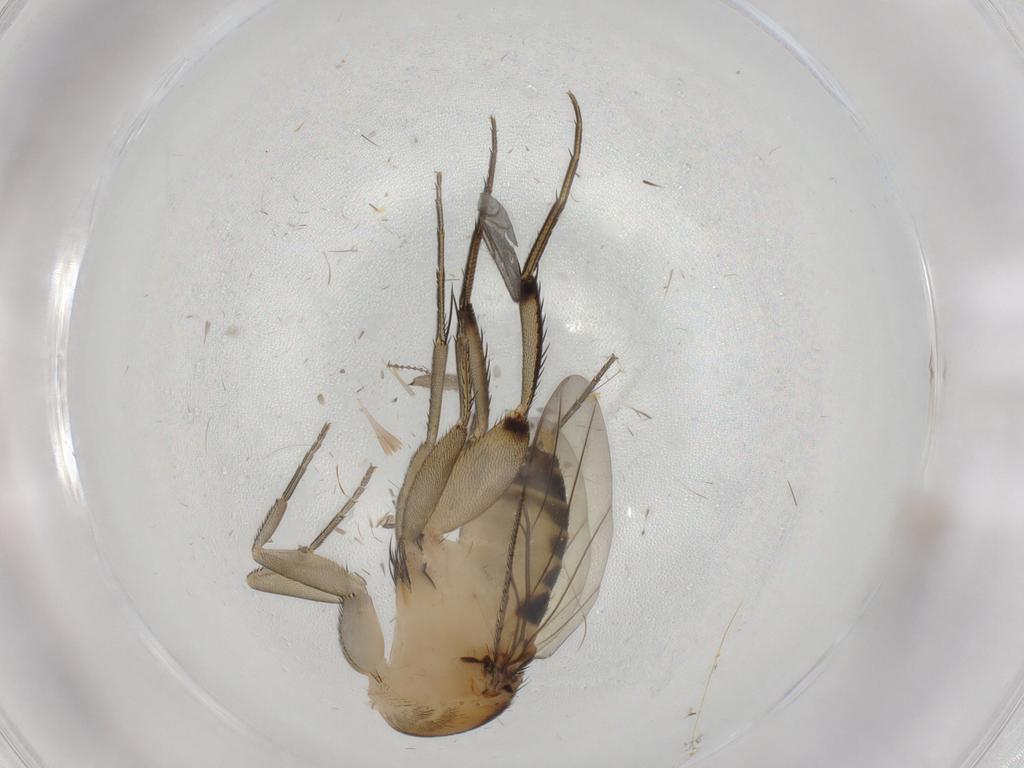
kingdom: Animalia
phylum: Arthropoda
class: Insecta
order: Diptera
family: Phoridae
